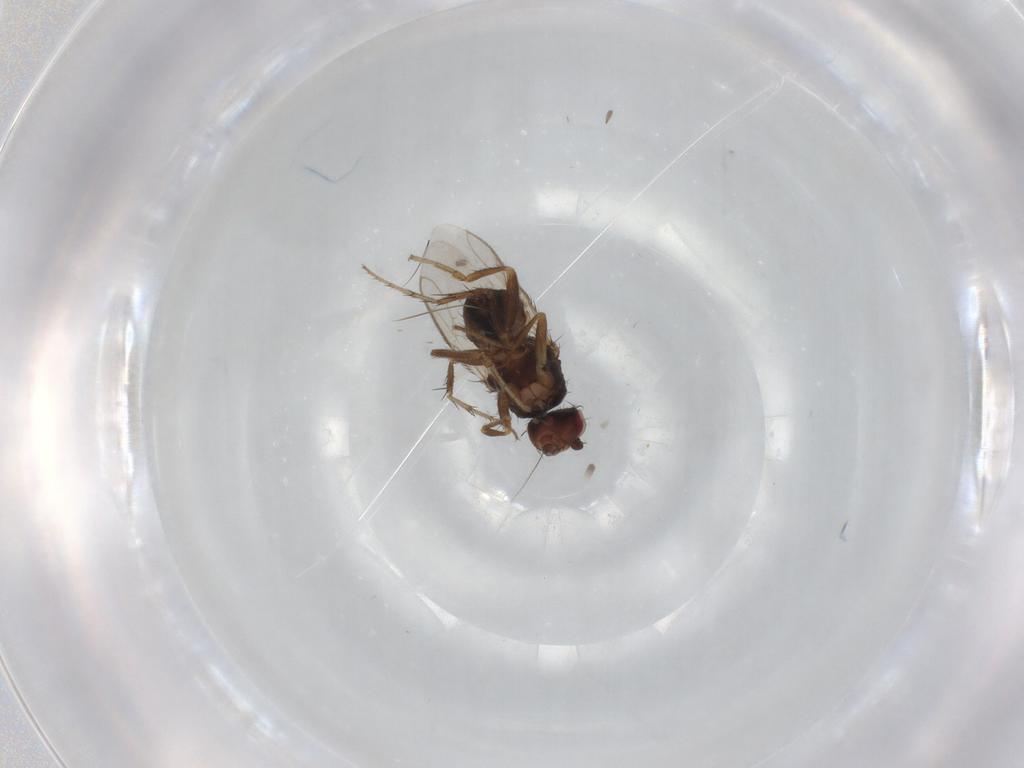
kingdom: Animalia
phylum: Arthropoda
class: Insecta
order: Diptera
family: Sphaeroceridae
